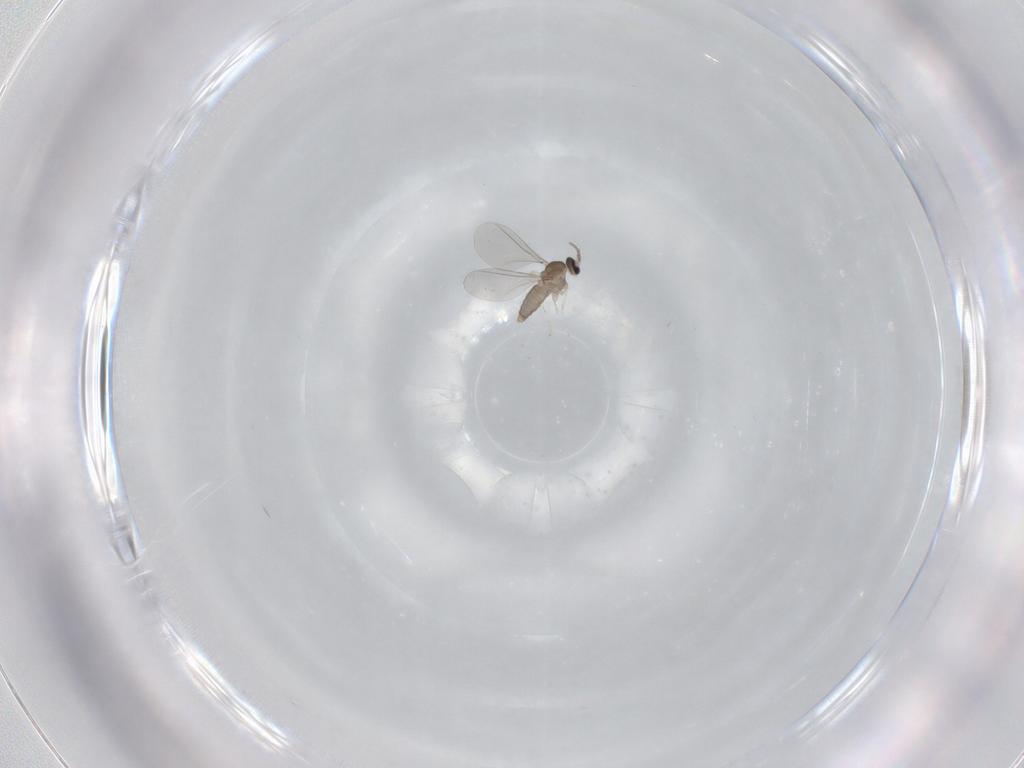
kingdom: Animalia
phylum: Arthropoda
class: Insecta
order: Diptera
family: Cecidomyiidae
